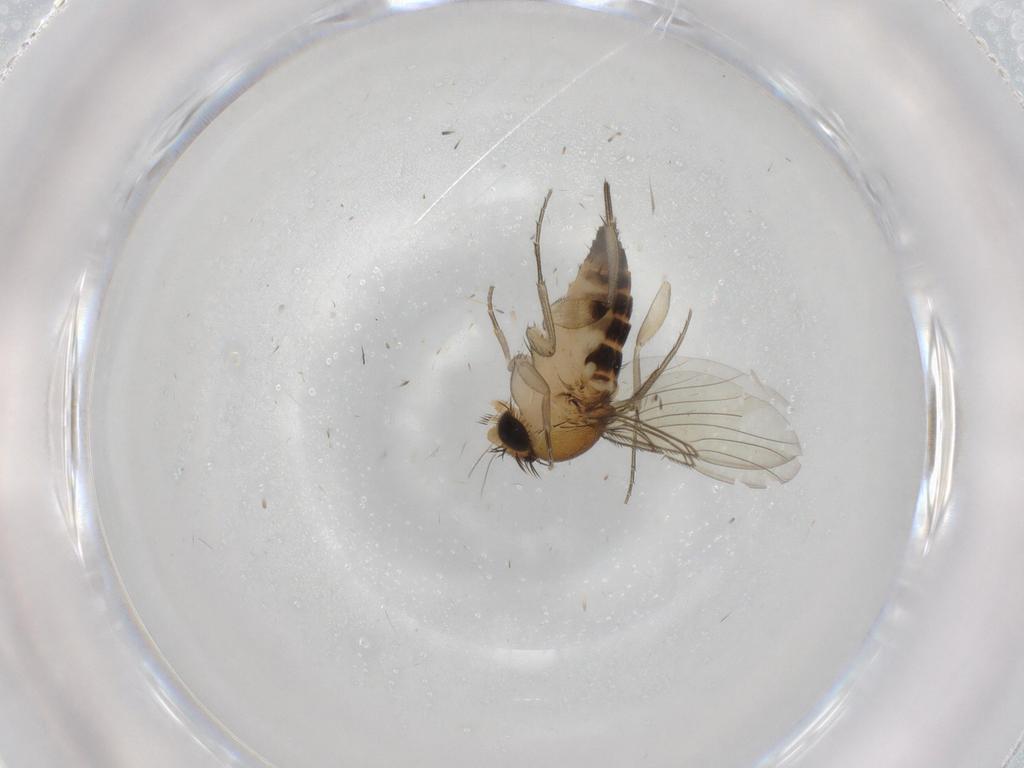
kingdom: Animalia
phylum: Arthropoda
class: Insecta
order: Diptera
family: Phoridae
